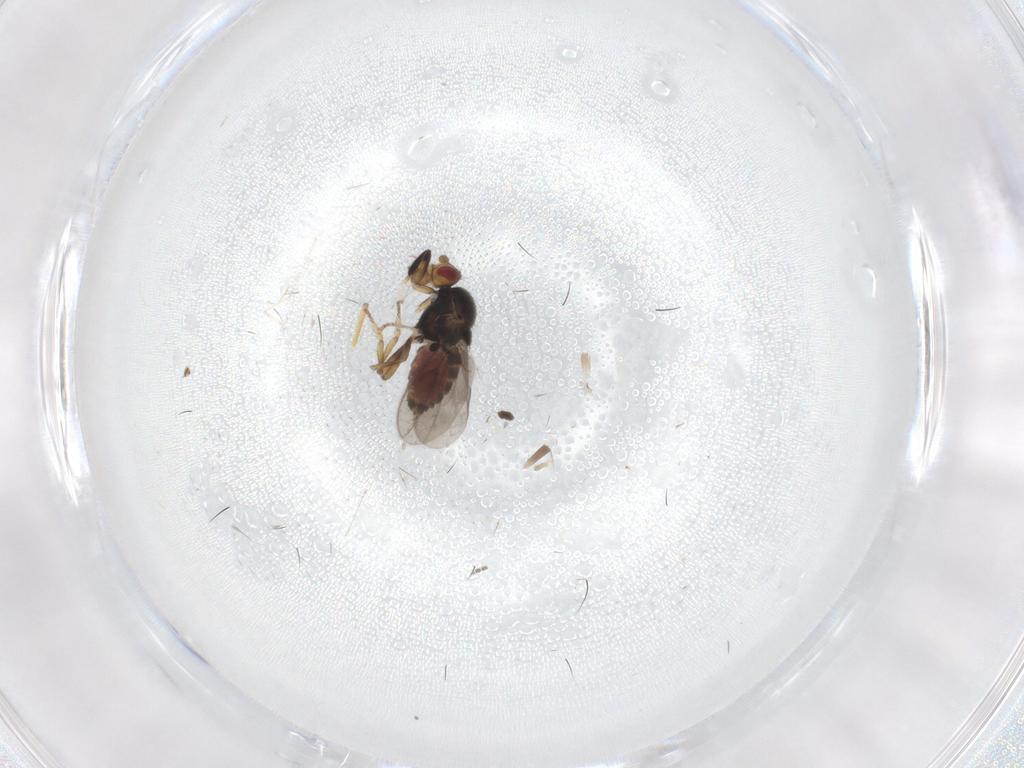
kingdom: Animalia
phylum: Arthropoda
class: Insecta
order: Diptera
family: Sphaeroceridae
